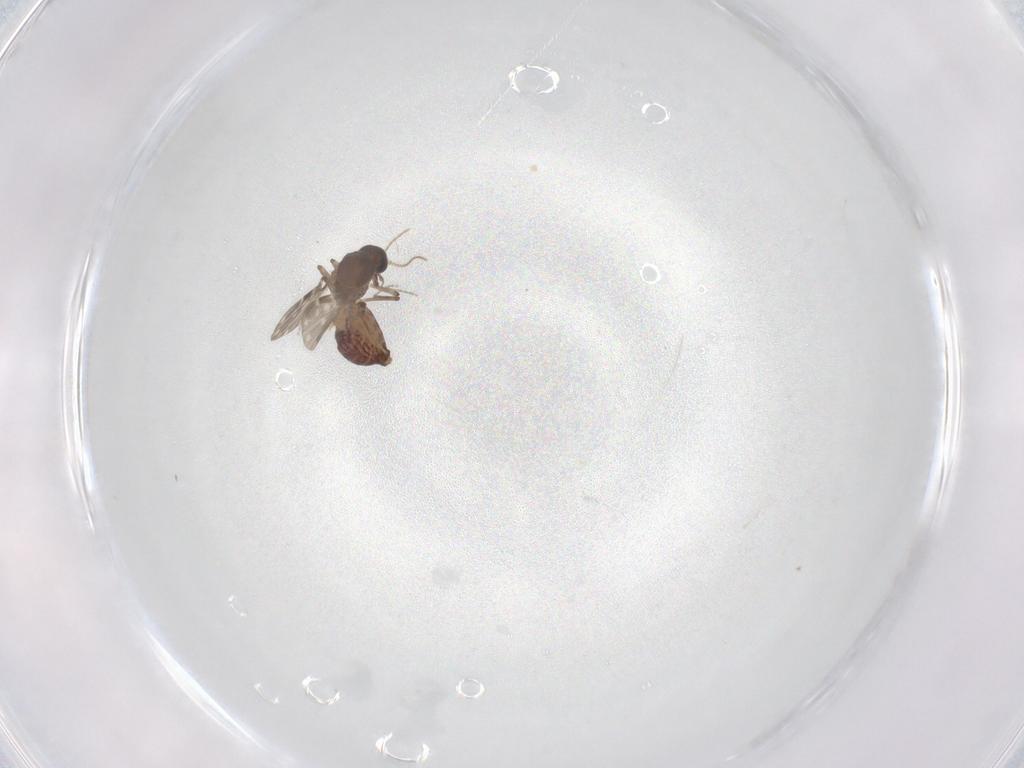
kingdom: Animalia
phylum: Arthropoda
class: Insecta
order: Diptera
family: Ceratopogonidae
